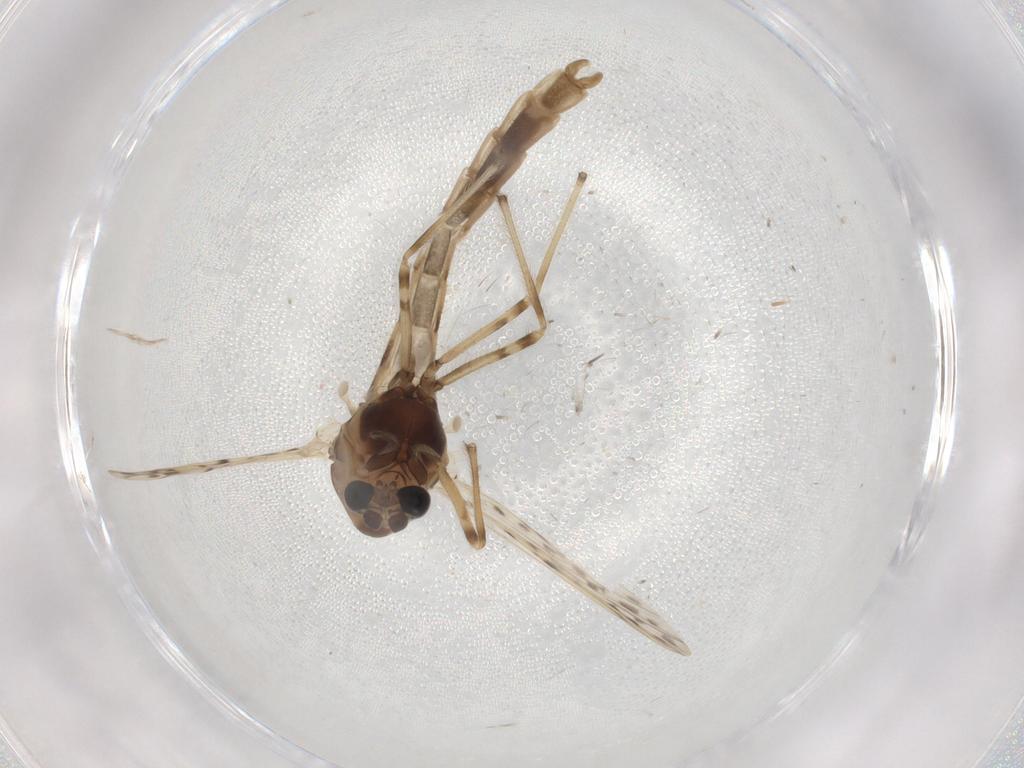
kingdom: Animalia
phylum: Arthropoda
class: Insecta
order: Diptera
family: Chironomidae
